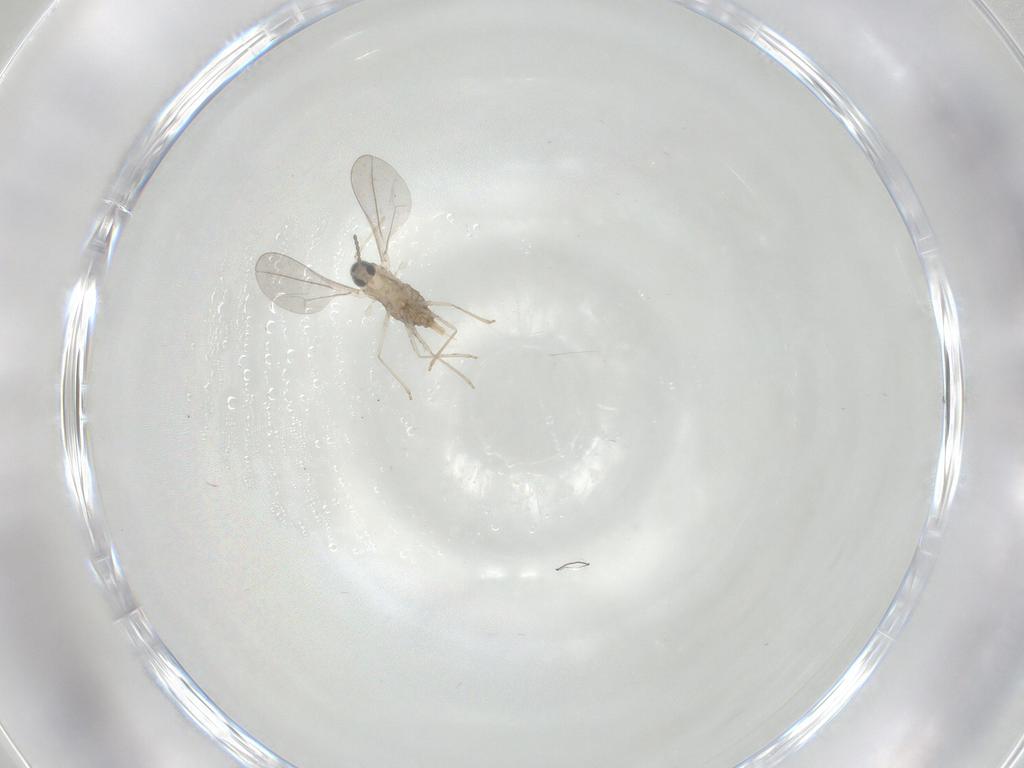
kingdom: Animalia
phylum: Arthropoda
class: Insecta
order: Diptera
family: Cecidomyiidae
